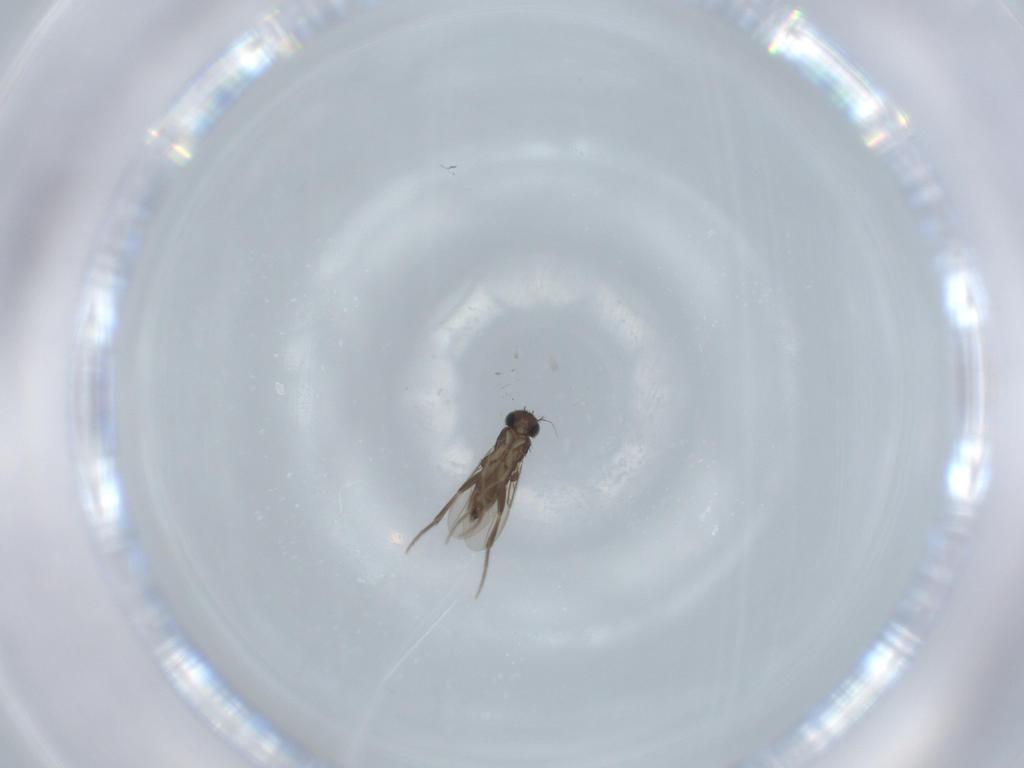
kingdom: Animalia
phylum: Arthropoda
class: Insecta
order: Diptera
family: Phoridae
